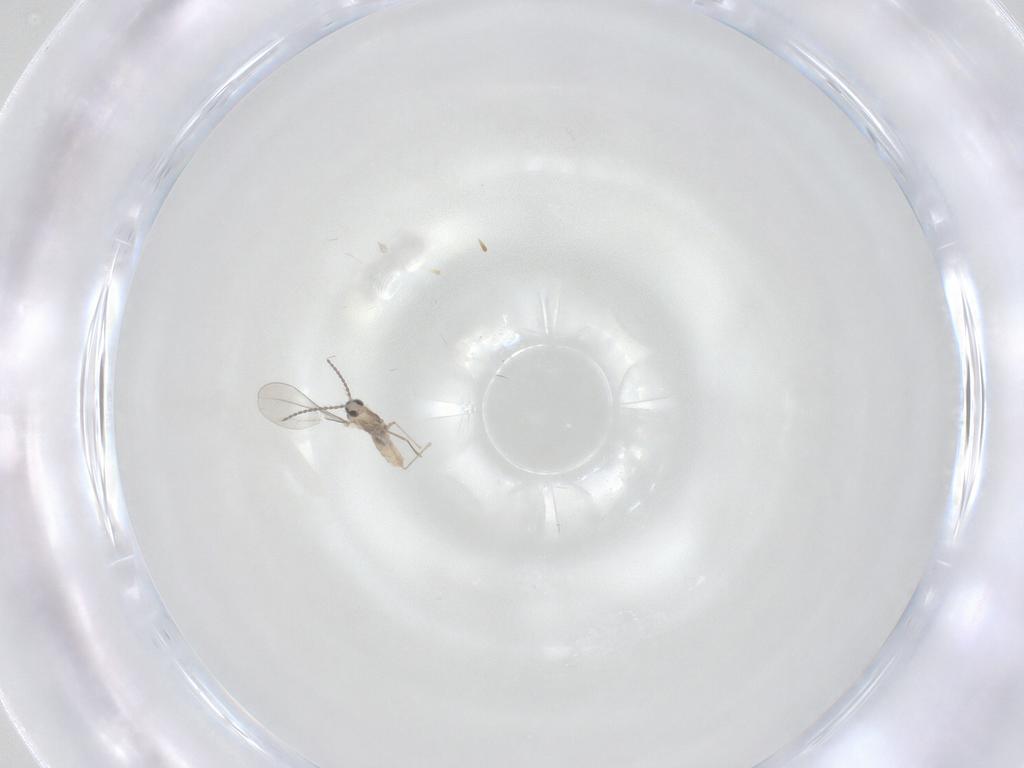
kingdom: Animalia
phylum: Arthropoda
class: Insecta
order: Diptera
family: Cecidomyiidae
